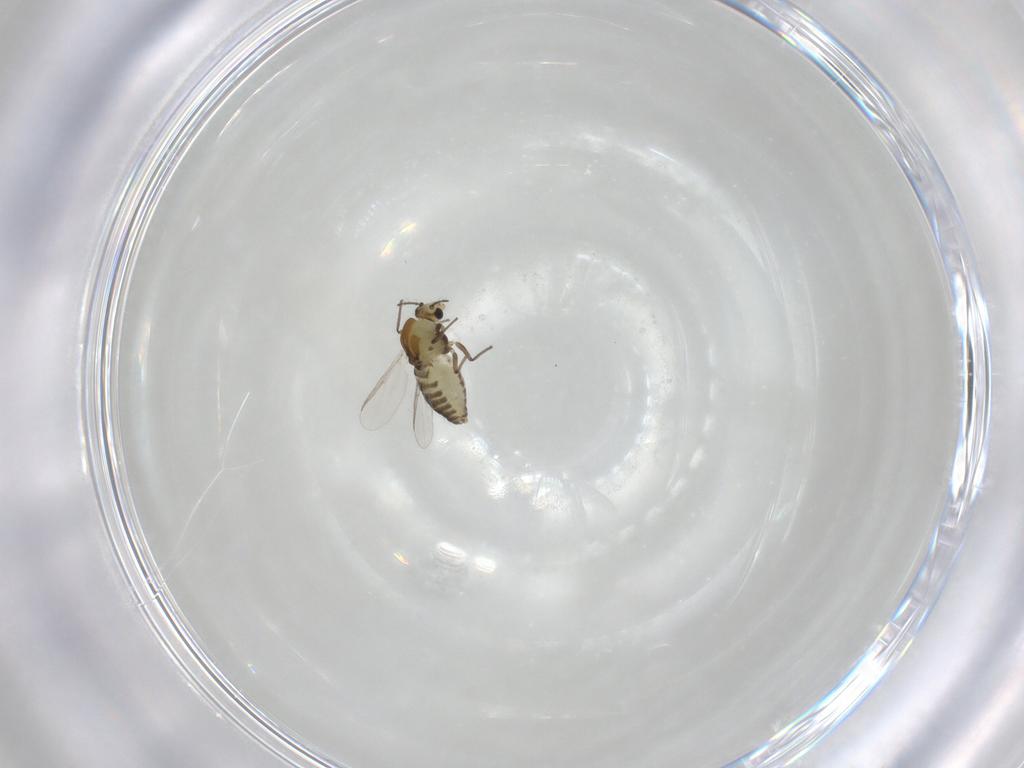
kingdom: Animalia
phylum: Arthropoda
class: Insecta
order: Diptera
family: Chironomidae
